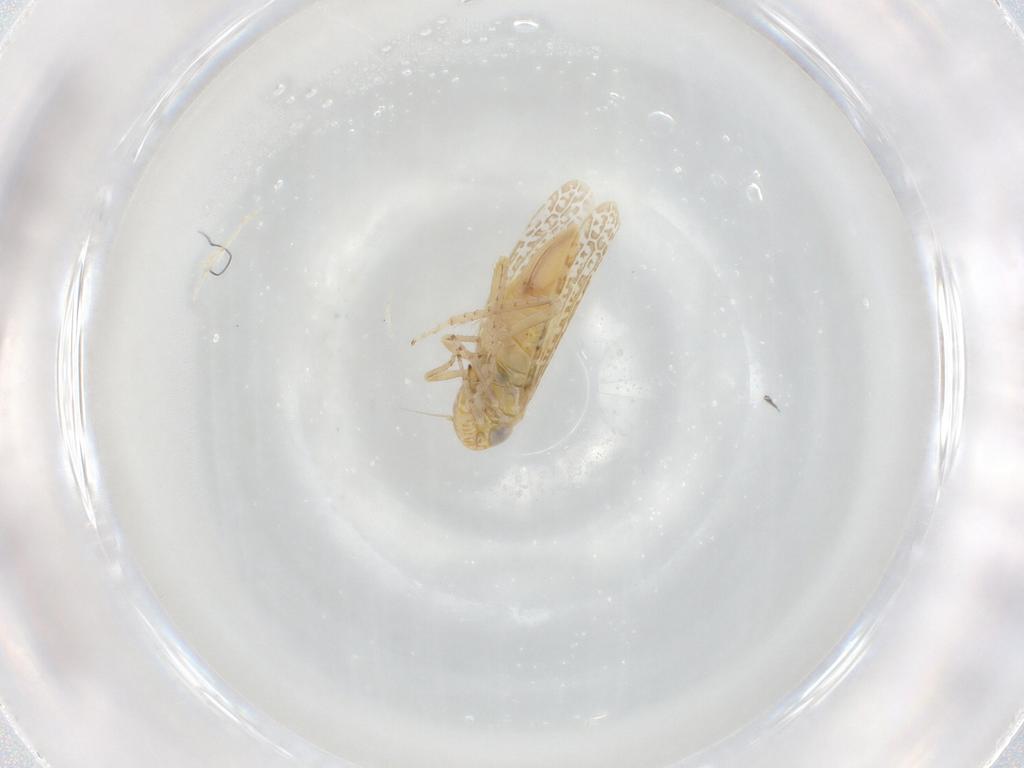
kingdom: Animalia
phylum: Arthropoda
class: Insecta
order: Hemiptera
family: Cicadellidae
